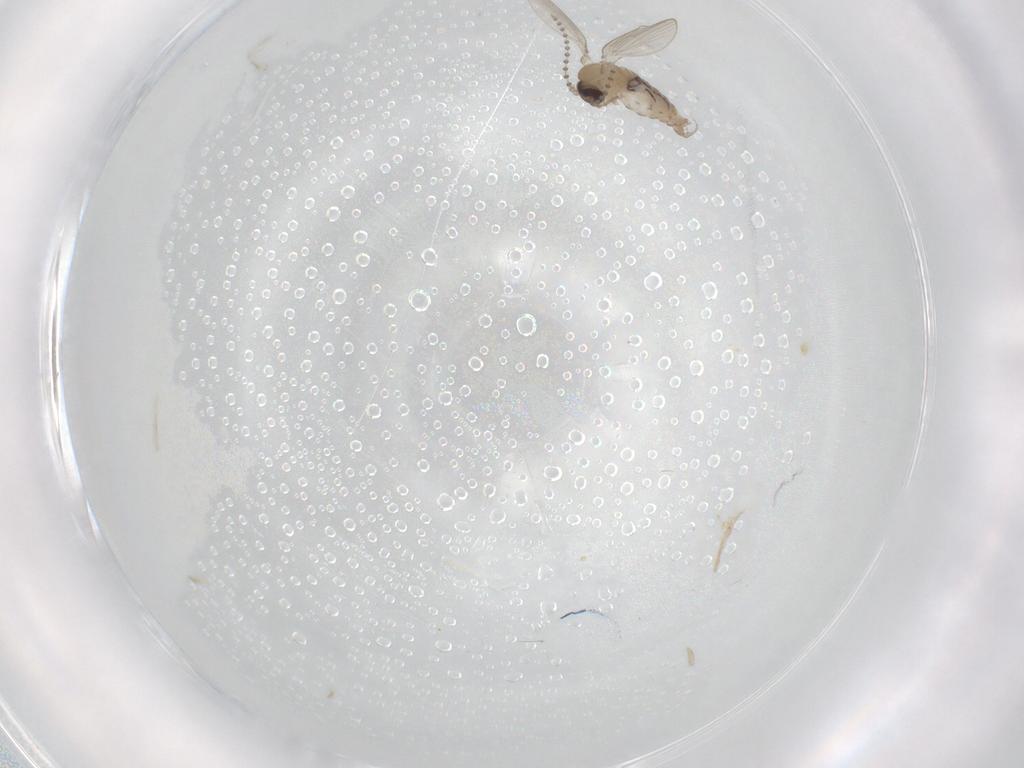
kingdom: Animalia
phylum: Arthropoda
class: Insecta
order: Diptera
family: Psychodidae
